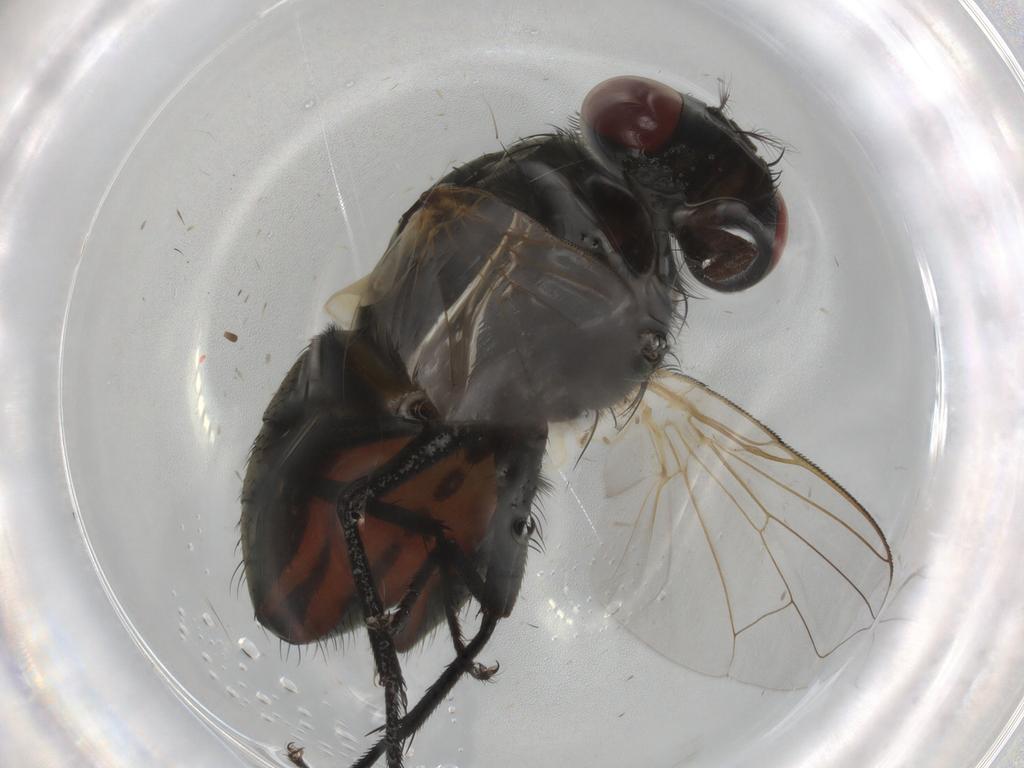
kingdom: Animalia
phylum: Arthropoda
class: Insecta
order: Diptera
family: Muscidae
